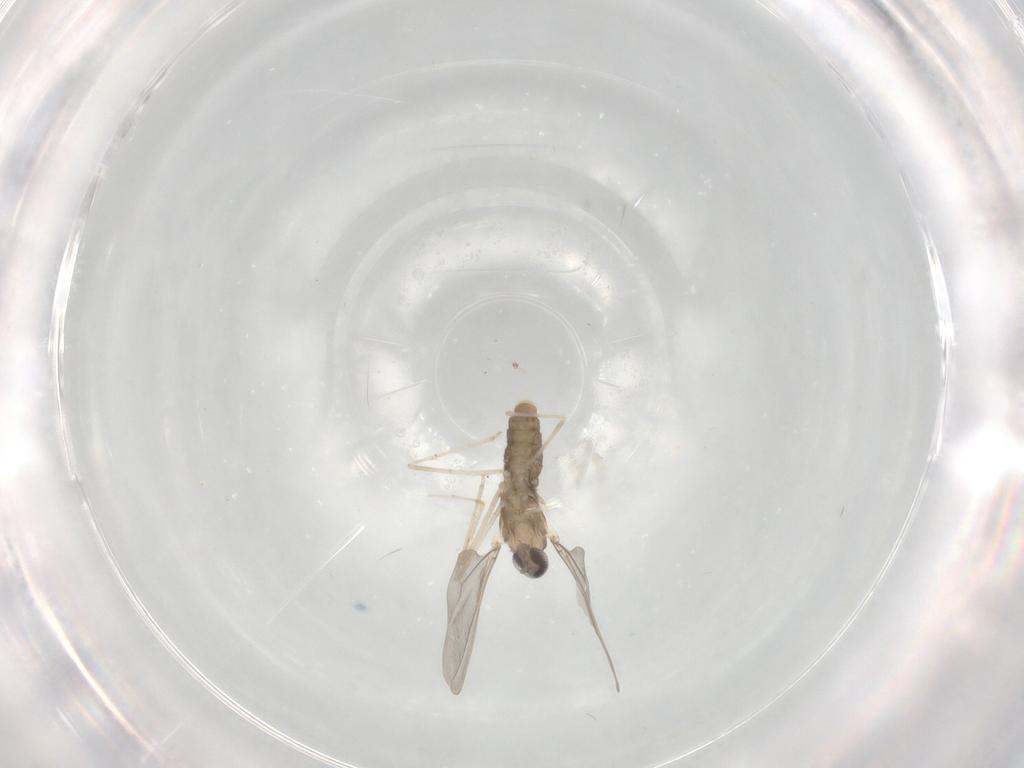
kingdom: Animalia
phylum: Arthropoda
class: Insecta
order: Diptera
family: Cecidomyiidae
